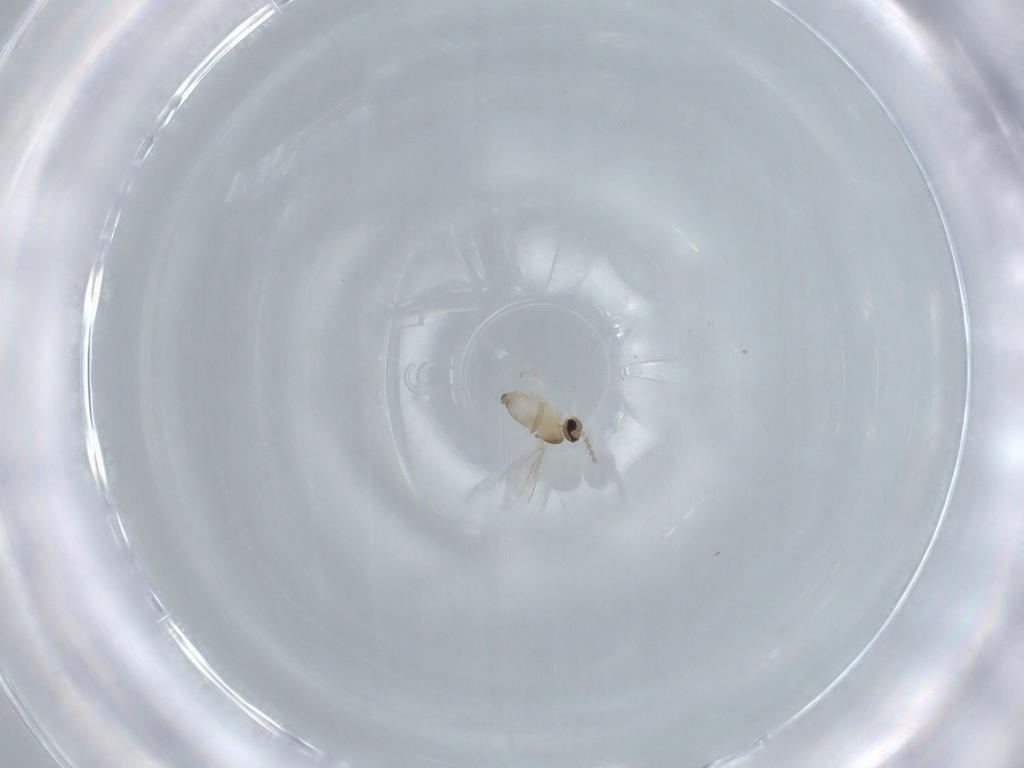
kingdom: Animalia
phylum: Arthropoda
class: Insecta
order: Diptera
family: Cecidomyiidae
